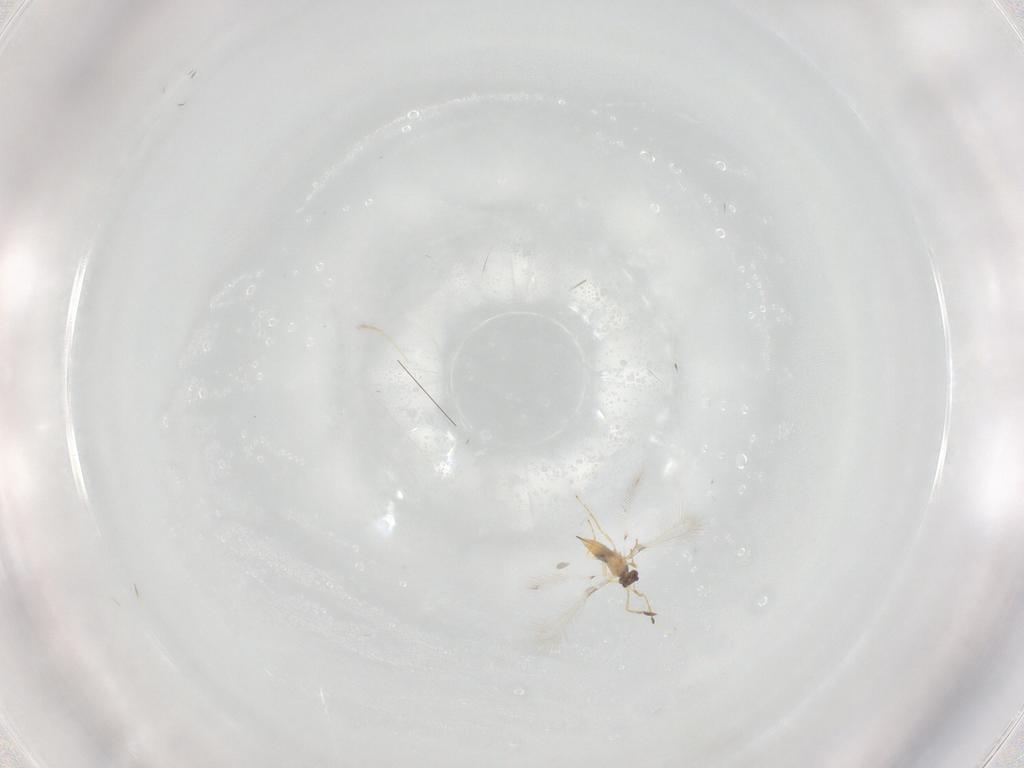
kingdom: Animalia
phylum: Arthropoda
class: Insecta
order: Hymenoptera
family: Mymaridae
